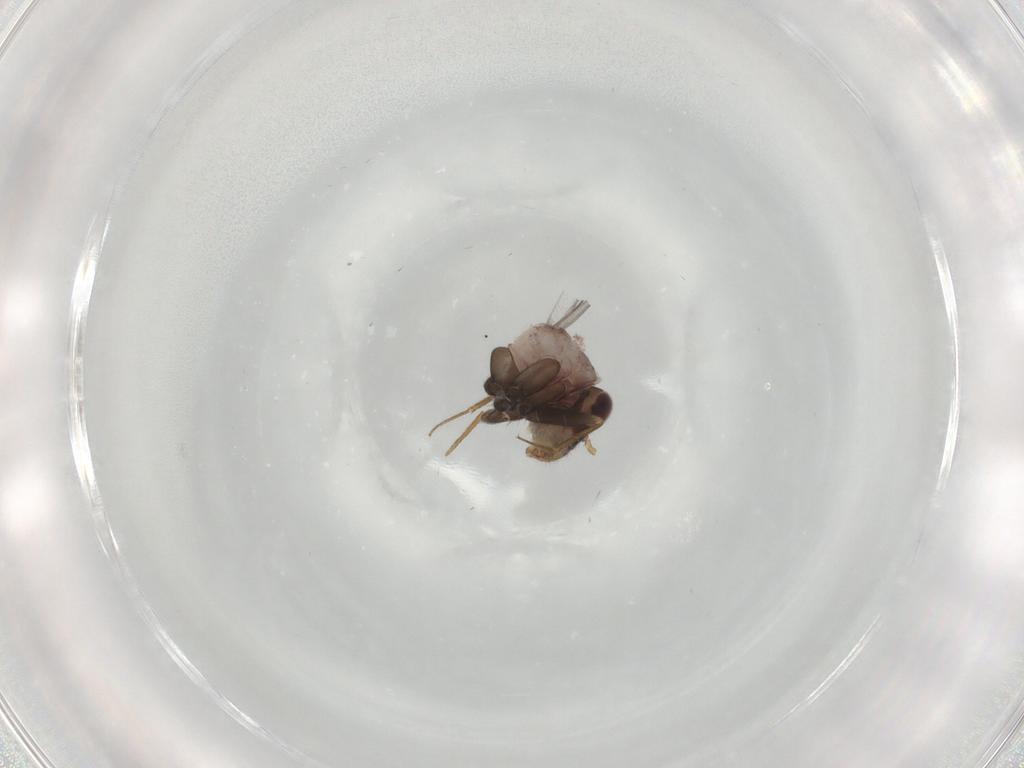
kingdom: Animalia
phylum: Arthropoda
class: Insecta
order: Psocodea
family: Lepidopsocidae
